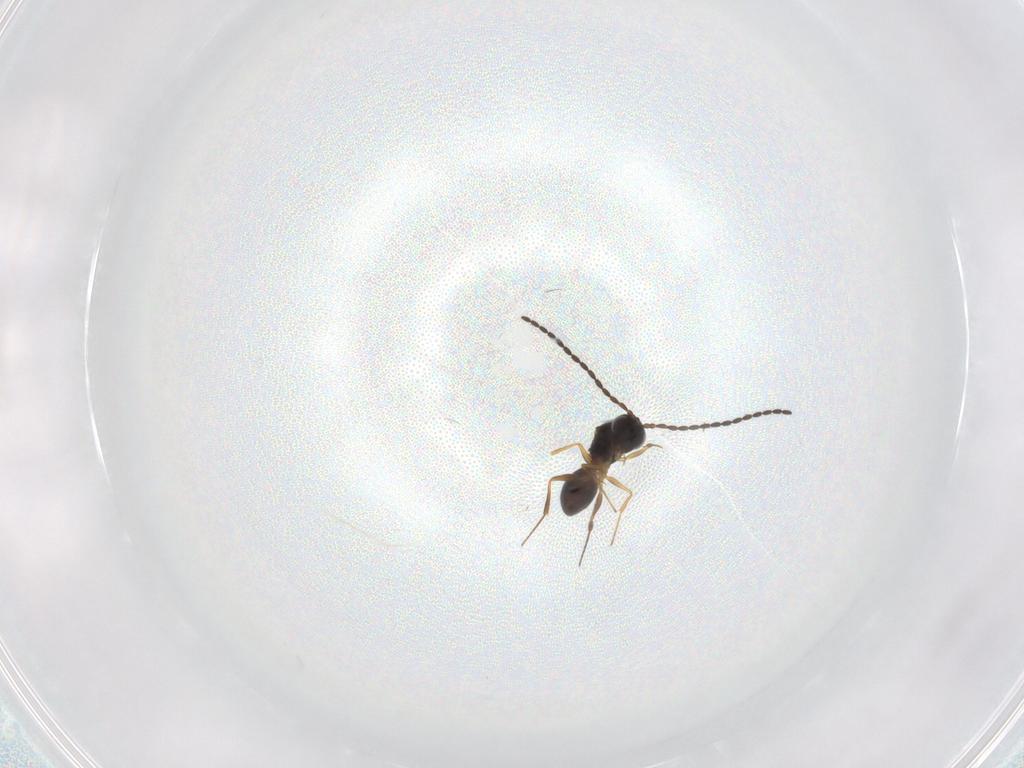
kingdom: Animalia
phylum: Arthropoda
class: Insecta
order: Hymenoptera
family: Figitidae
